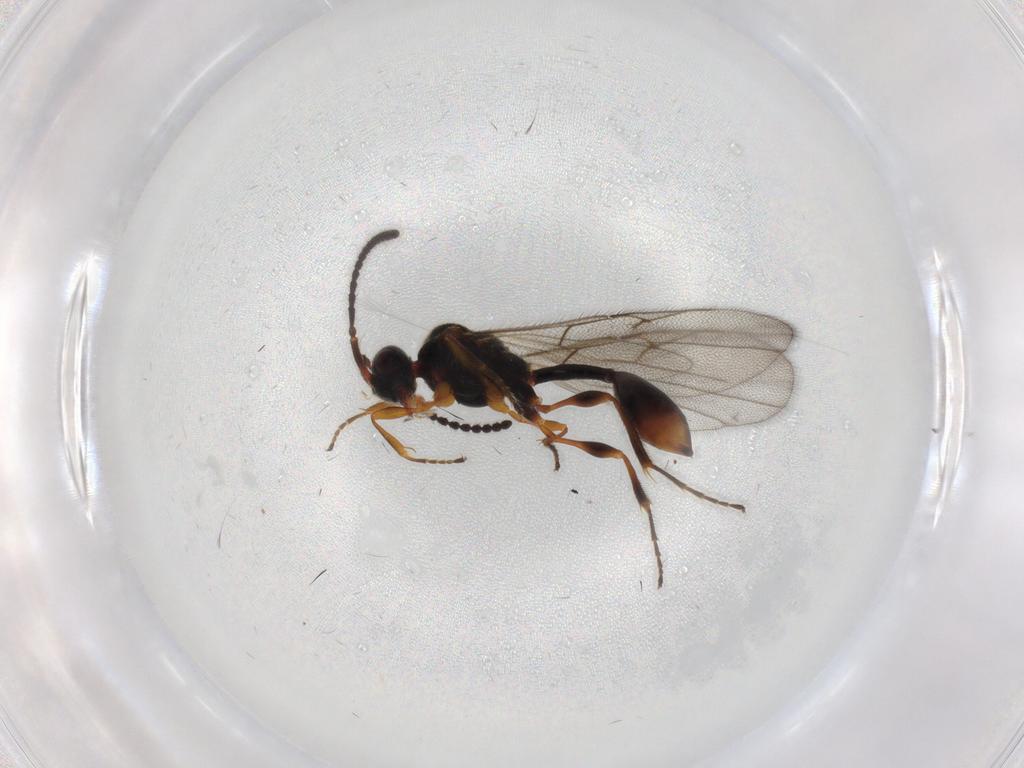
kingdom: Animalia
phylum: Arthropoda
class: Insecta
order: Hymenoptera
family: Diapriidae
